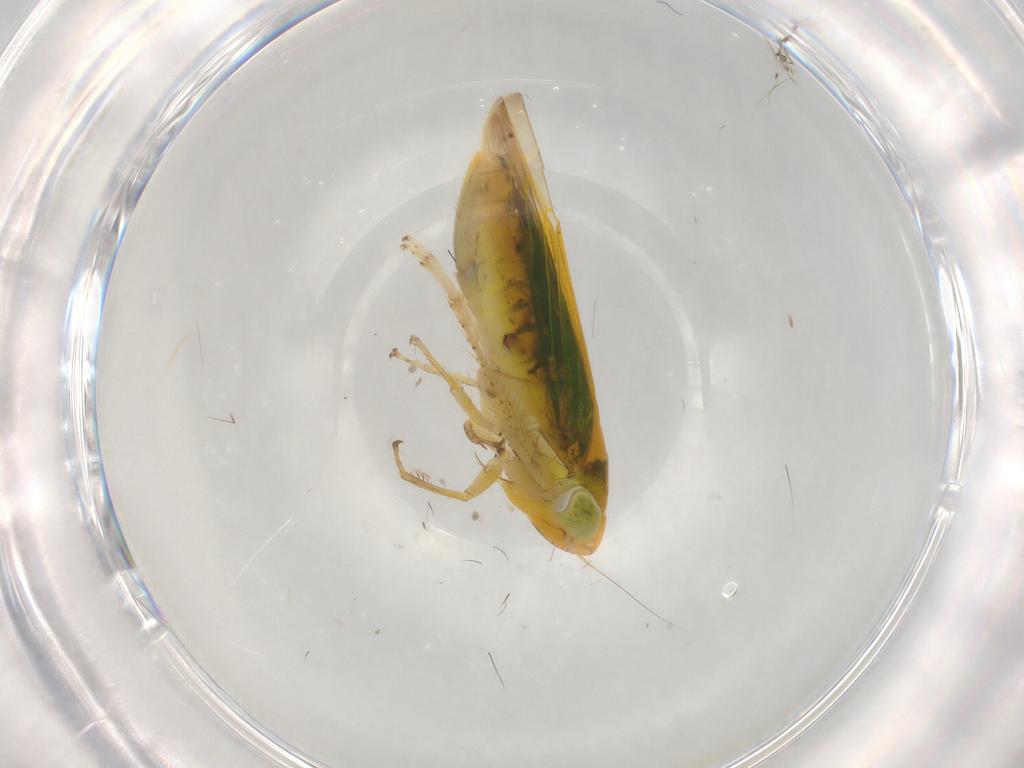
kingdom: Animalia
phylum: Arthropoda
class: Insecta
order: Hemiptera
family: Cicadellidae
